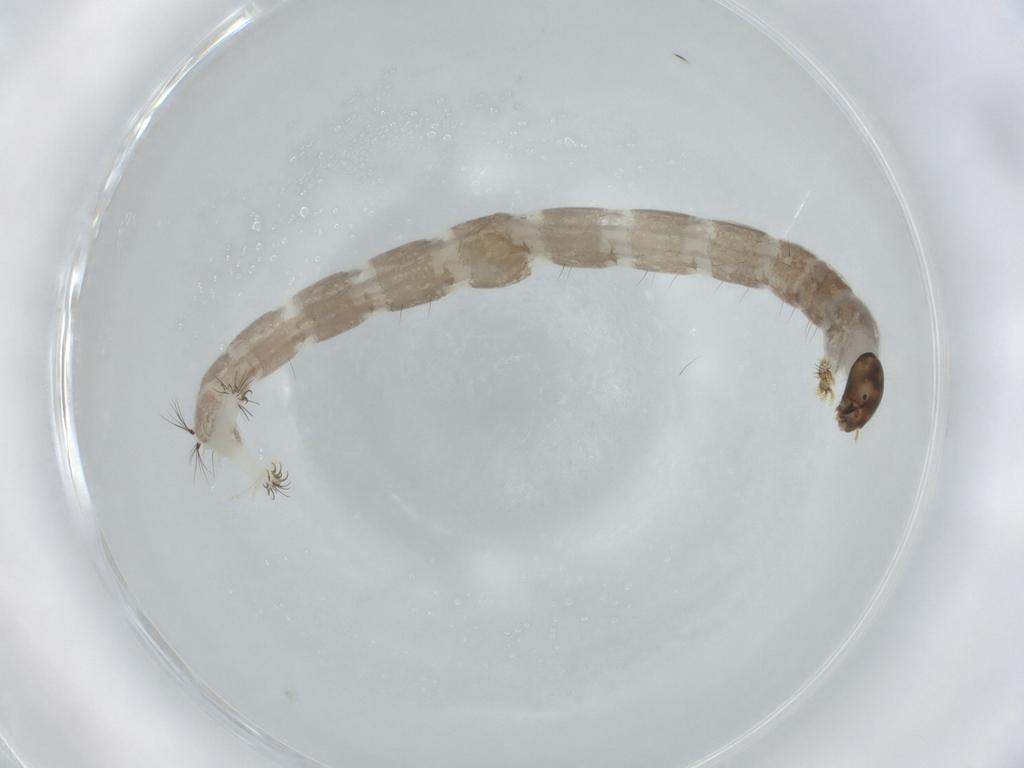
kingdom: Animalia
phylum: Arthropoda
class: Insecta
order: Diptera
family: Chironomidae
